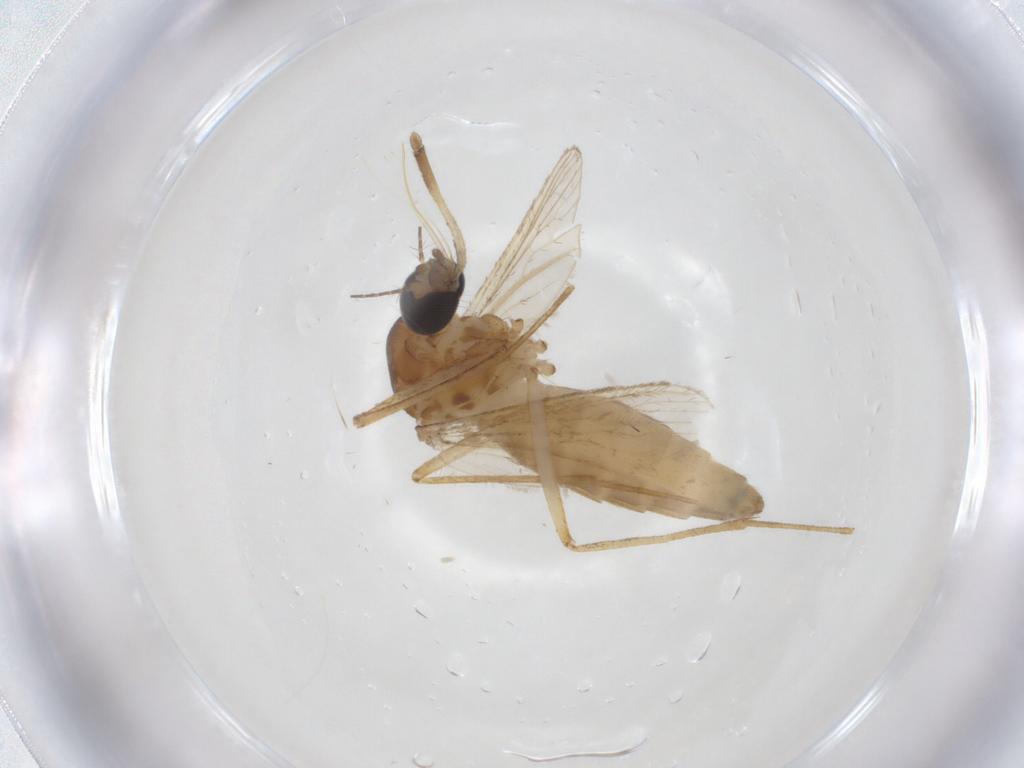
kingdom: Animalia
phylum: Arthropoda
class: Insecta
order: Diptera
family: Chironomidae
